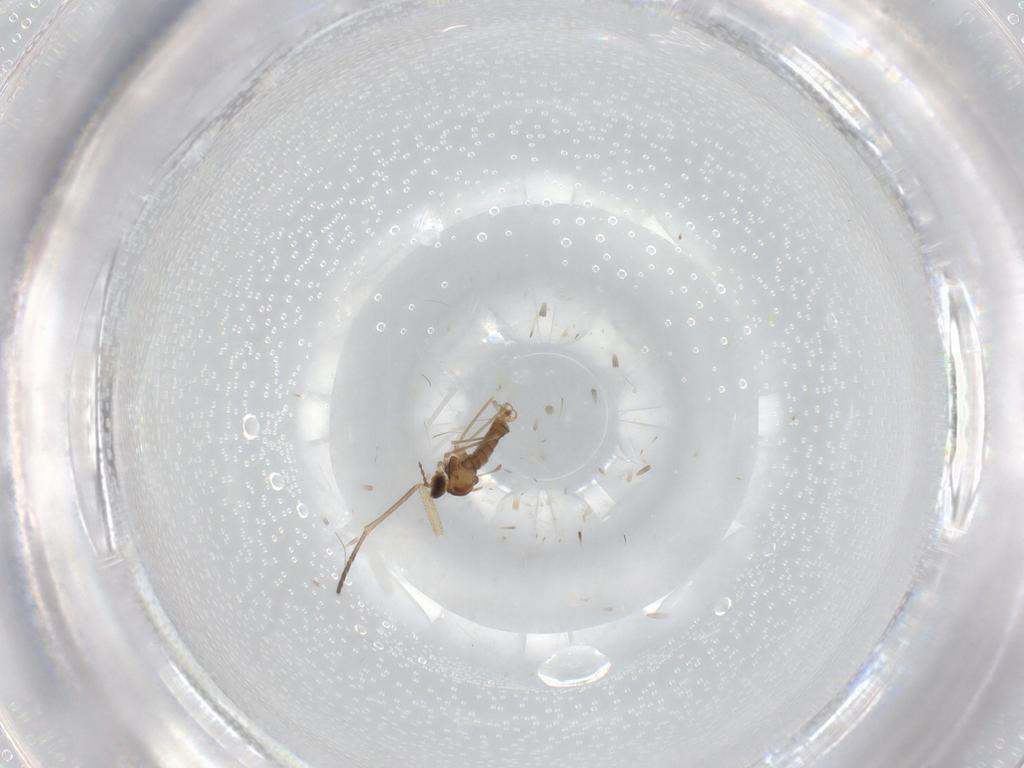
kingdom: Animalia
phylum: Arthropoda
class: Insecta
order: Diptera
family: Cecidomyiidae
